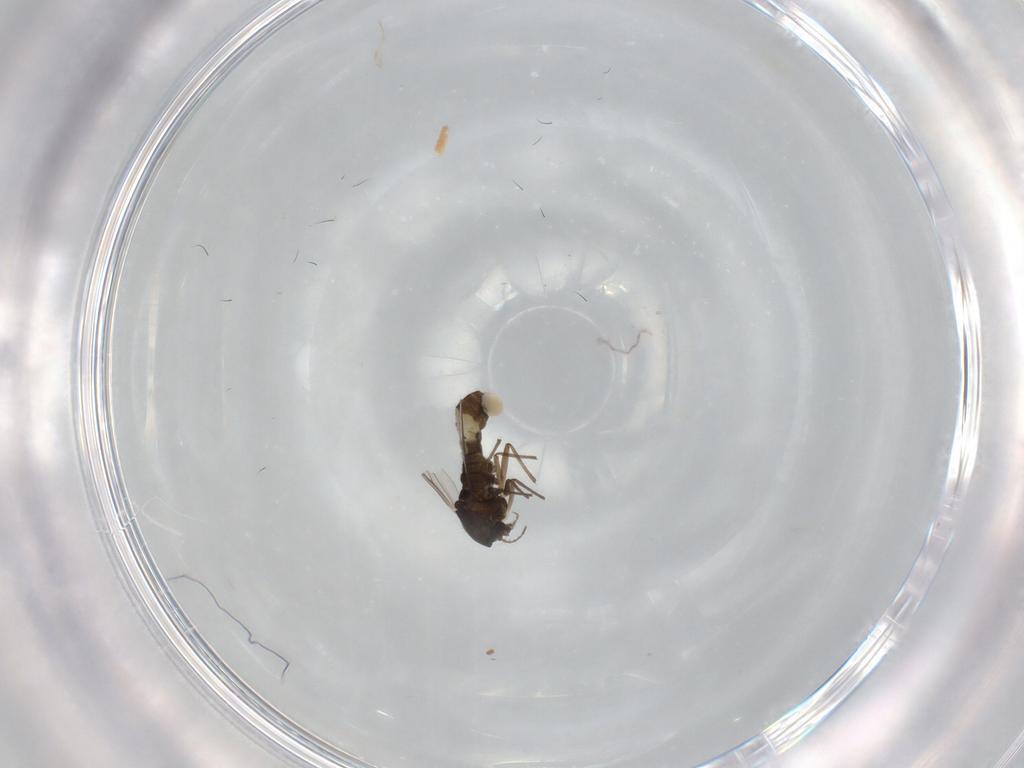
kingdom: Animalia
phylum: Arthropoda
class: Insecta
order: Diptera
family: Chironomidae
